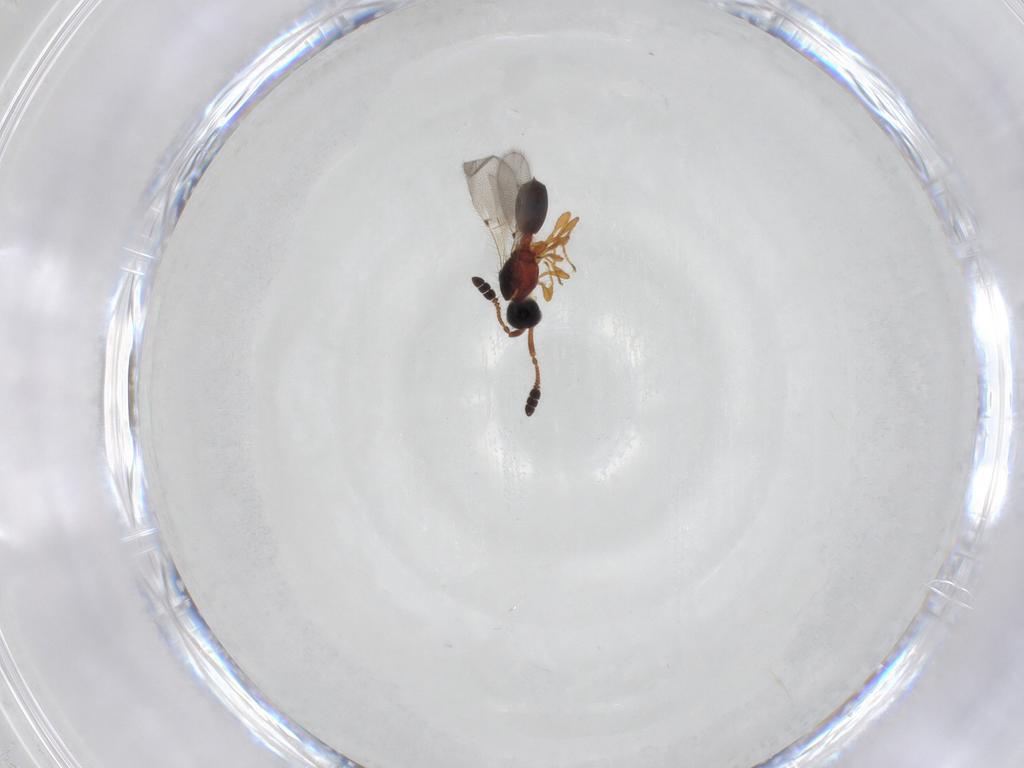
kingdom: Animalia
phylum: Arthropoda
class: Insecta
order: Hymenoptera
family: Diapriidae
